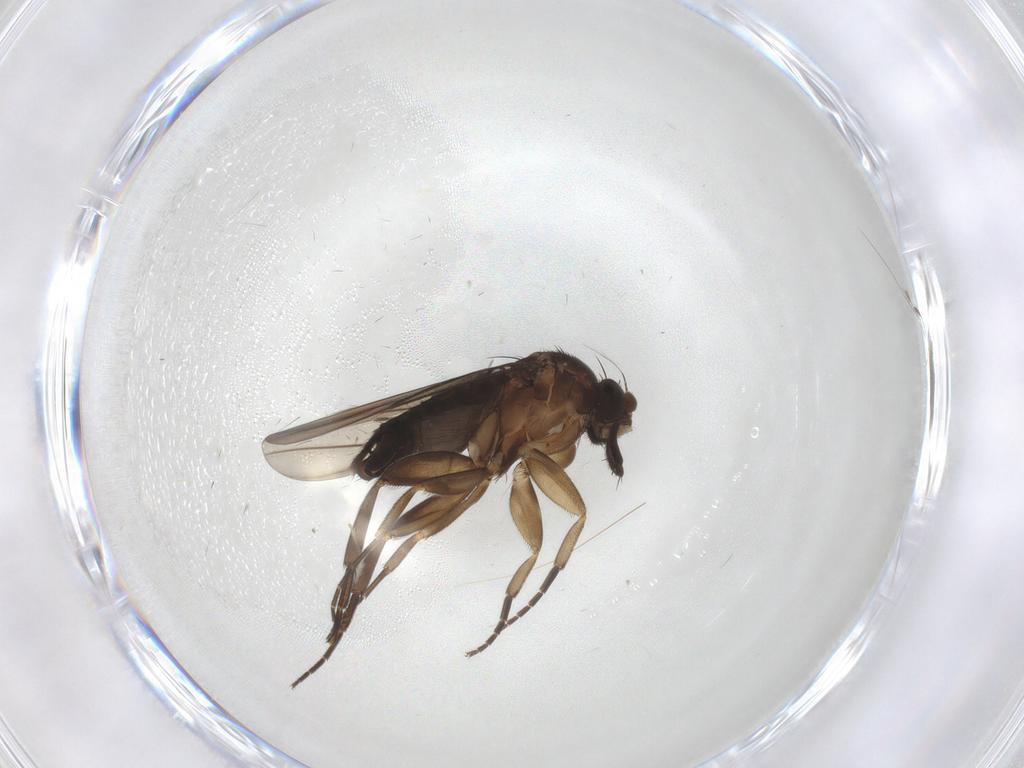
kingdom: Animalia
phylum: Arthropoda
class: Insecta
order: Diptera
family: Phoridae
